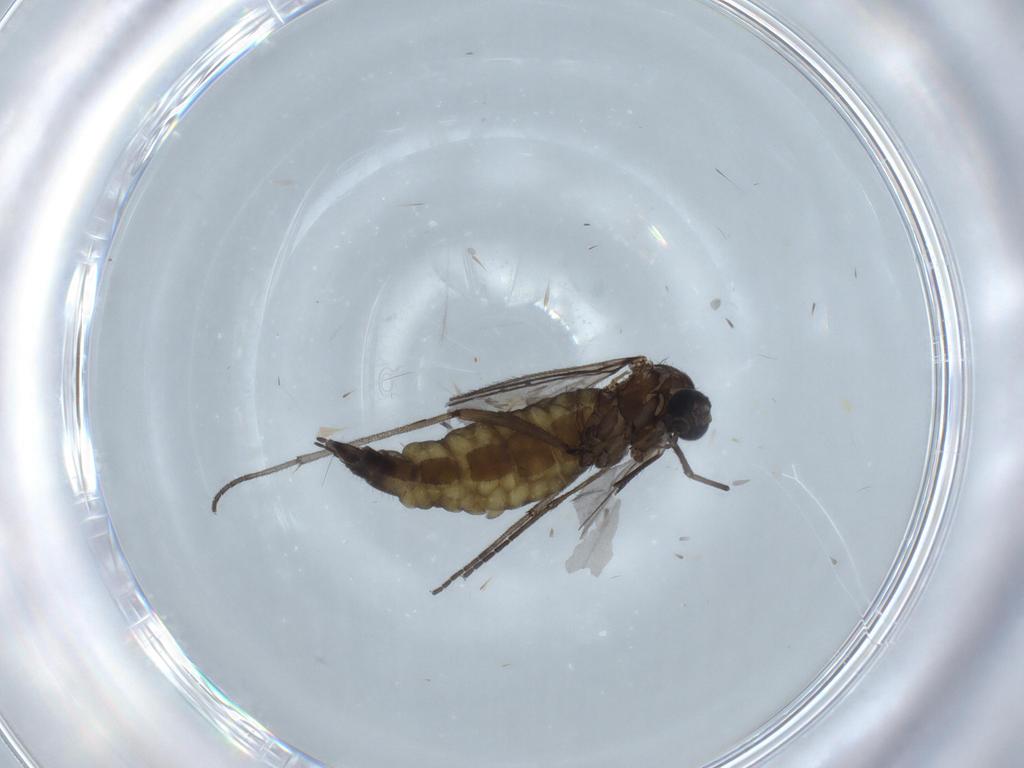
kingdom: Animalia
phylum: Arthropoda
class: Insecta
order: Diptera
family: Sciaridae
